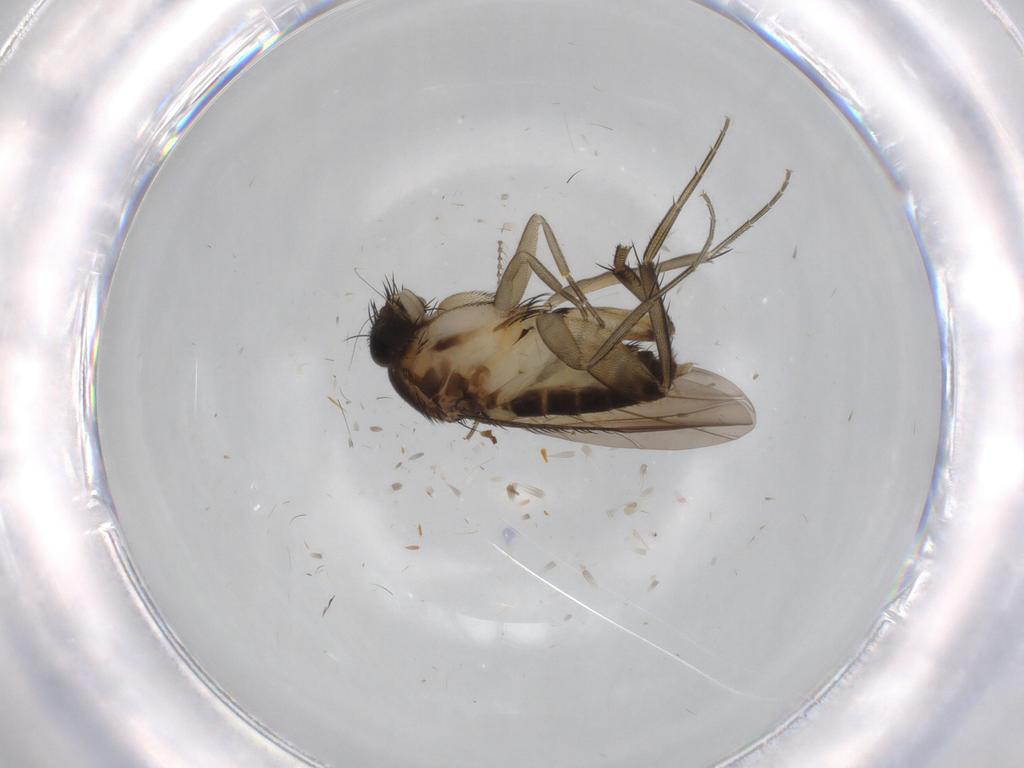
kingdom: Animalia
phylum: Arthropoda
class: Insecta
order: Diptera
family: Phoridae
